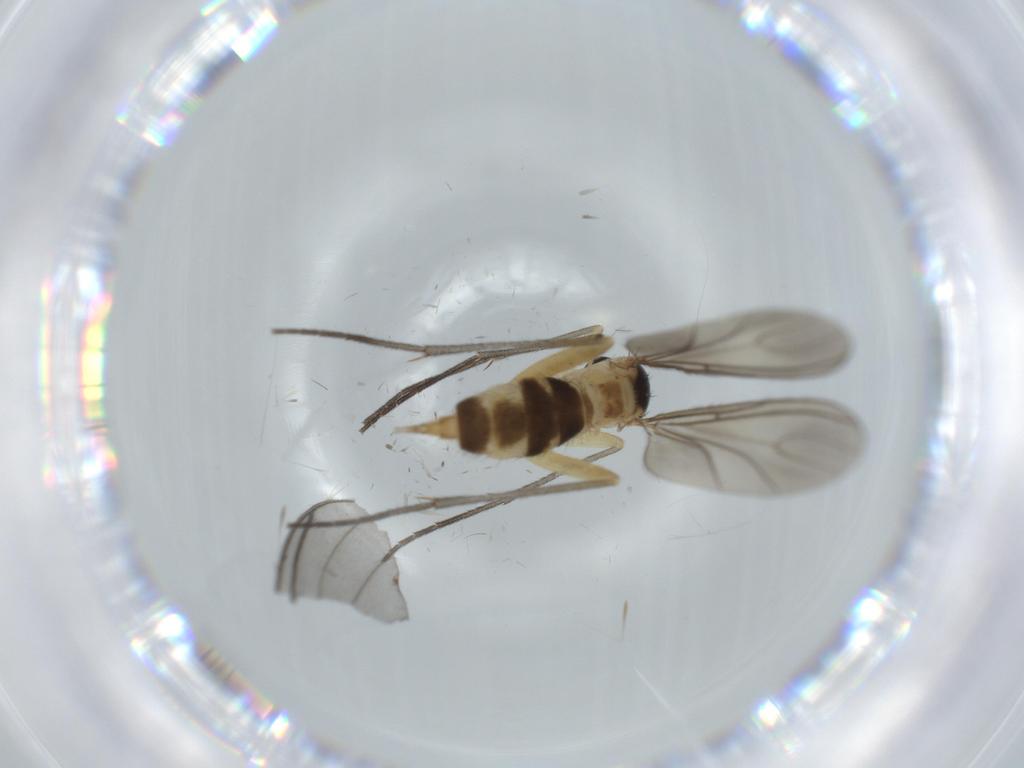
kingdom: Animalia
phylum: Arthropoda
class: Insecta
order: Diptera
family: Sciaridae
